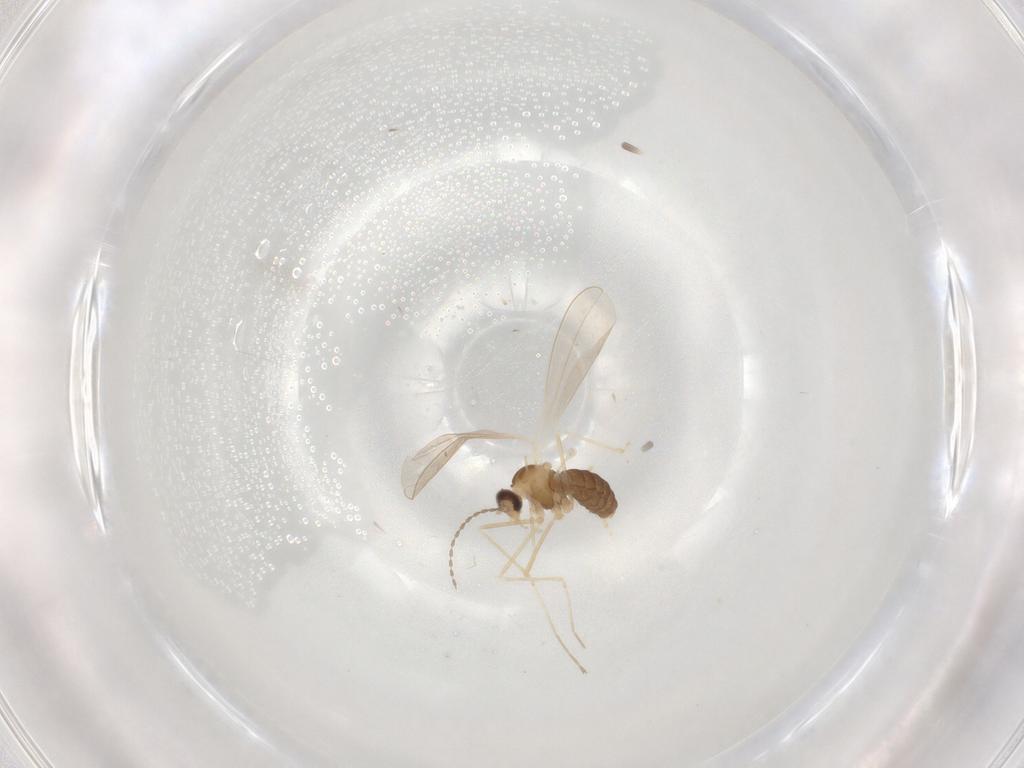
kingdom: Animalia
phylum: Arthropoda
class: Insecta
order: Diptera
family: Cecidomyiidae
